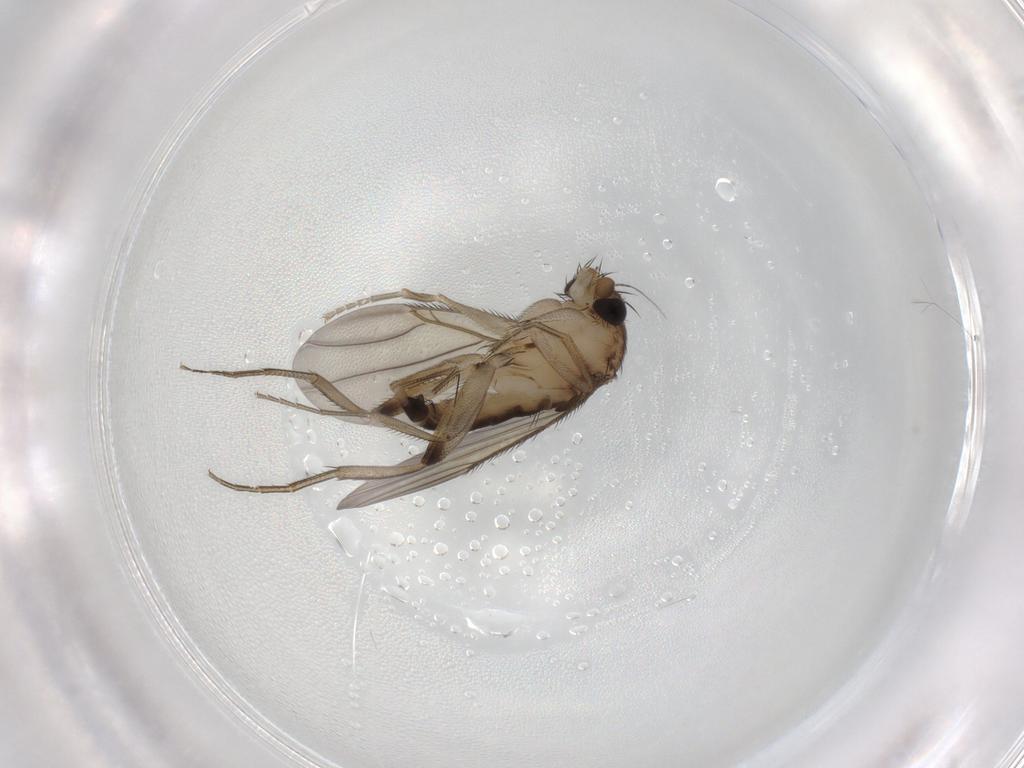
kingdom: Animalia
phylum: Arthropoda
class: Insecta
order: Diptera
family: Phoridae
